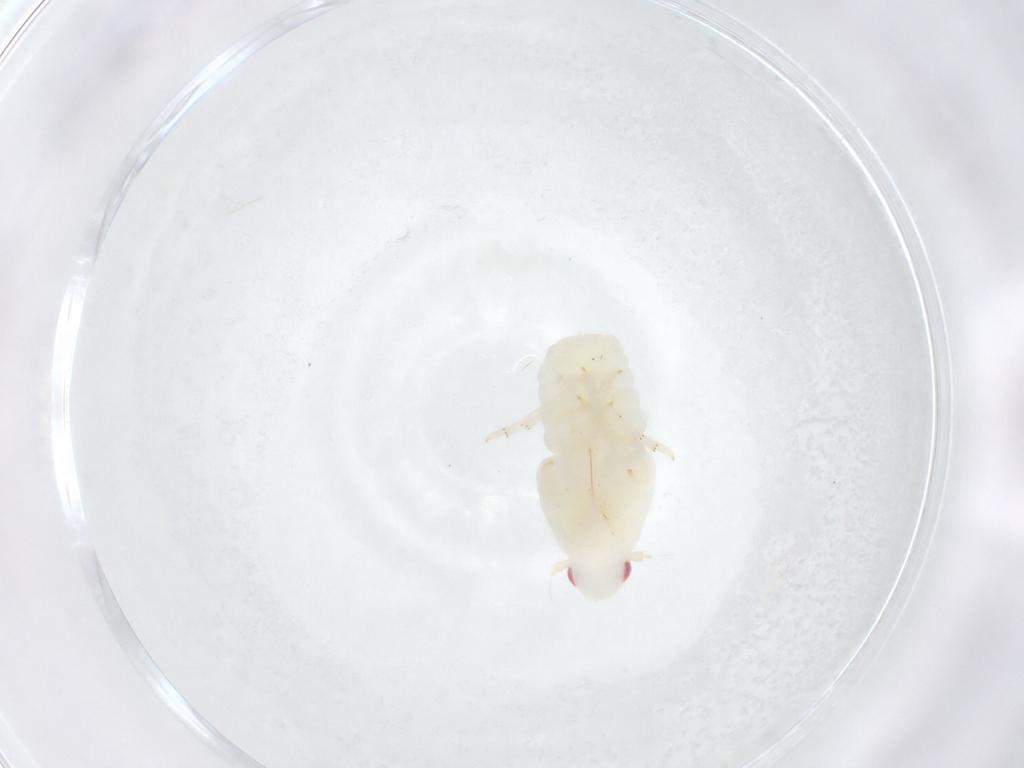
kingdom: Animalia
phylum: Arthropoda
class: Insecta
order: Hemiptera
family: Flatidae
